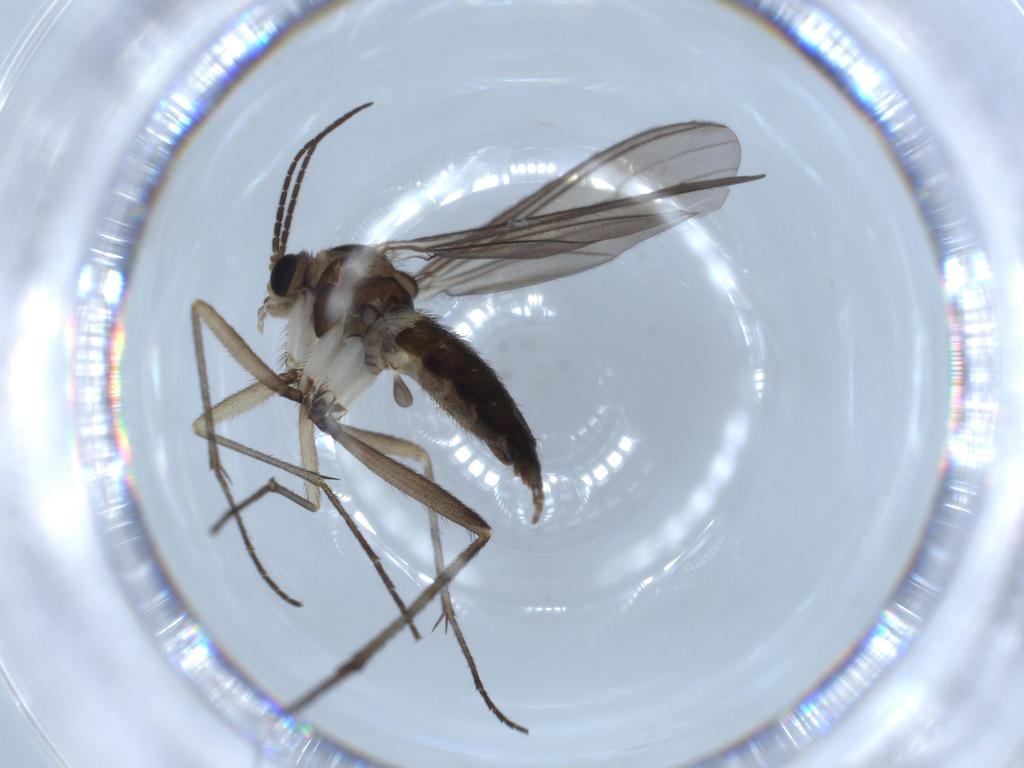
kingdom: Animalia
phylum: Arthropoda
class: Insecta
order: Diptera
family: Sciaridae
